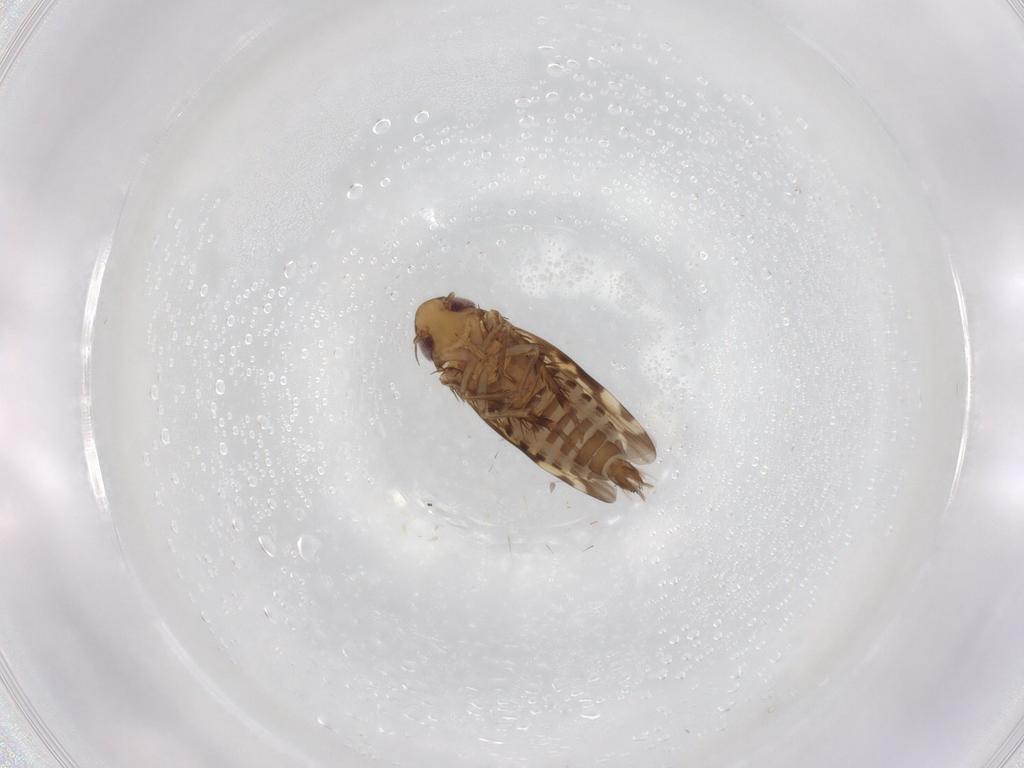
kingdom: Animalia
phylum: Arthropoda
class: Insecta
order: Hemiptera
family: Cicadellidae
